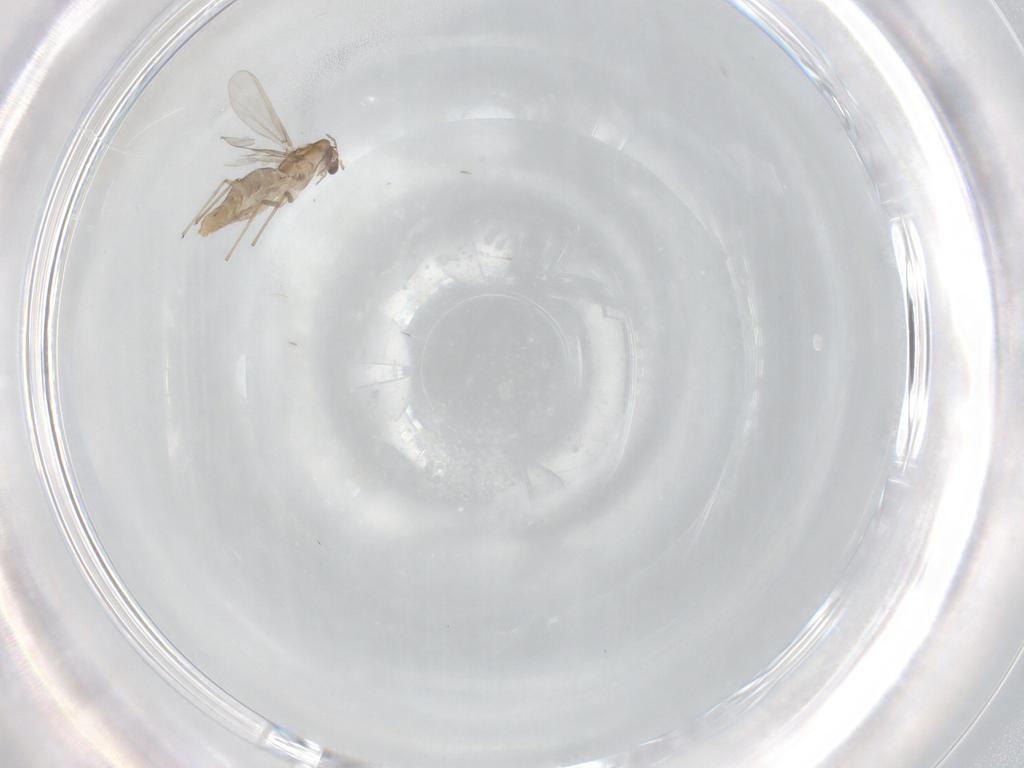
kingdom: Animalia
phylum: Arthropoda
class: Insecta
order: Diptera
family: Chironomidae
